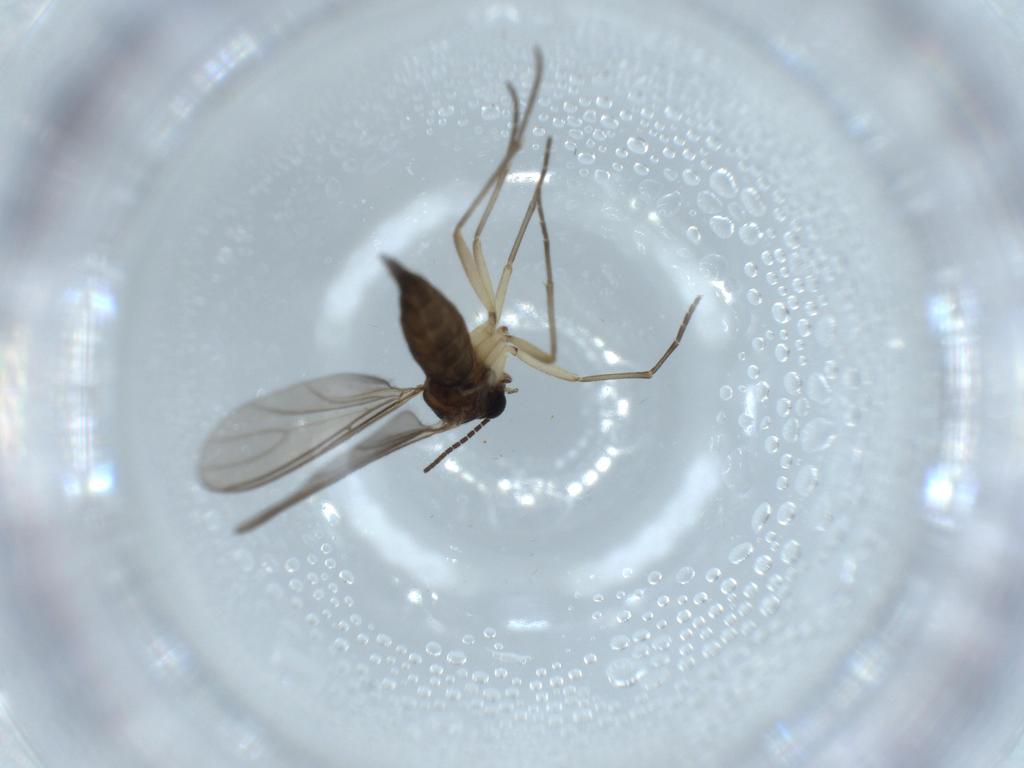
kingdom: Animalia
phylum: Arthropoda
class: Insecta
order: Diptera
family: Sciaridae
